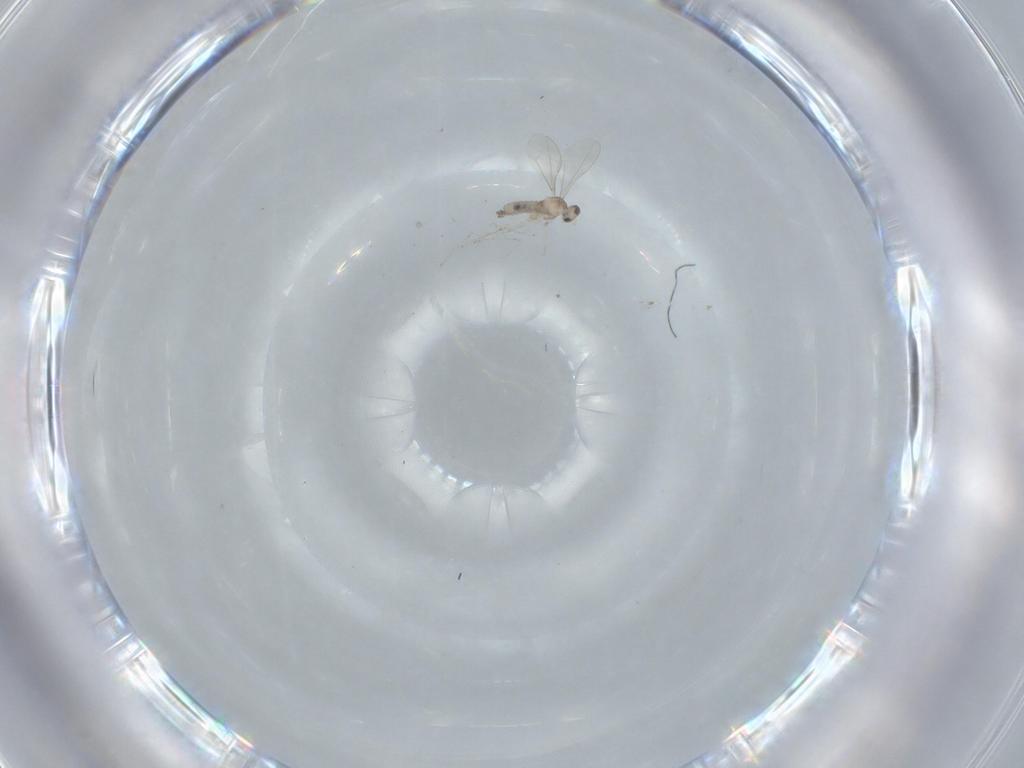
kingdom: Animalia
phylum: Arthropoda
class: Insecta
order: Diptera
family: Cecidomyiidae
